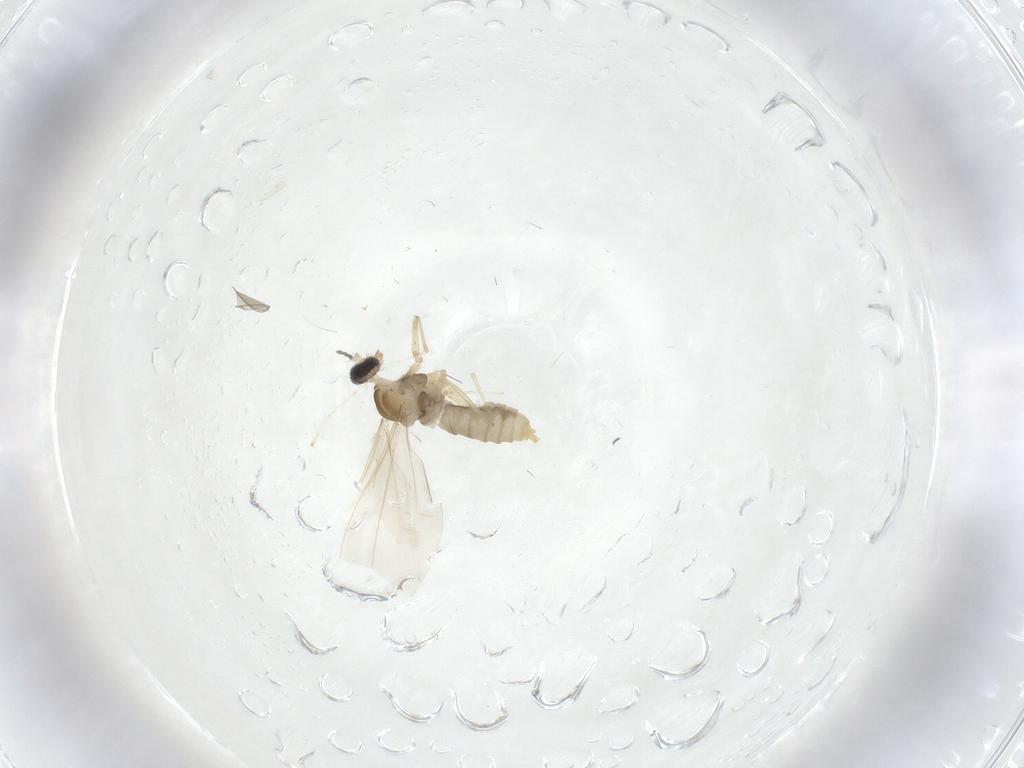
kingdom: Animalia
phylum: Arthropoda
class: Insecta
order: Diptera
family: Cecidomyiidae
